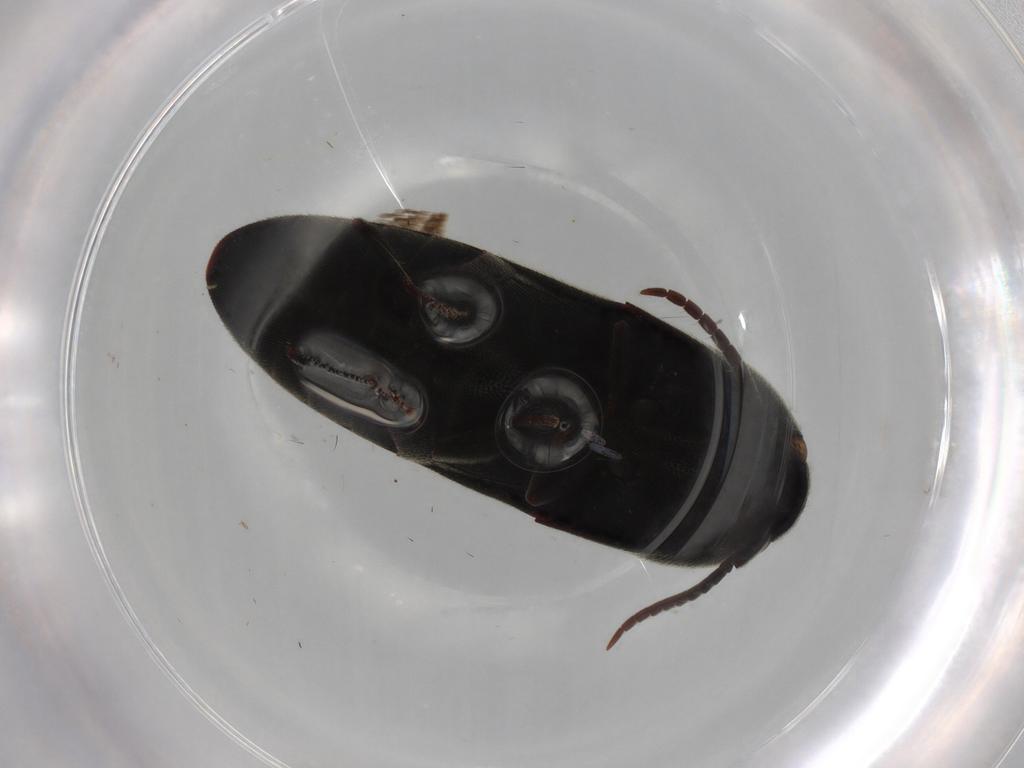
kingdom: Animalia
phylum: Arthropoda
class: Insecta
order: Coleoptera
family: Eucnemidae
